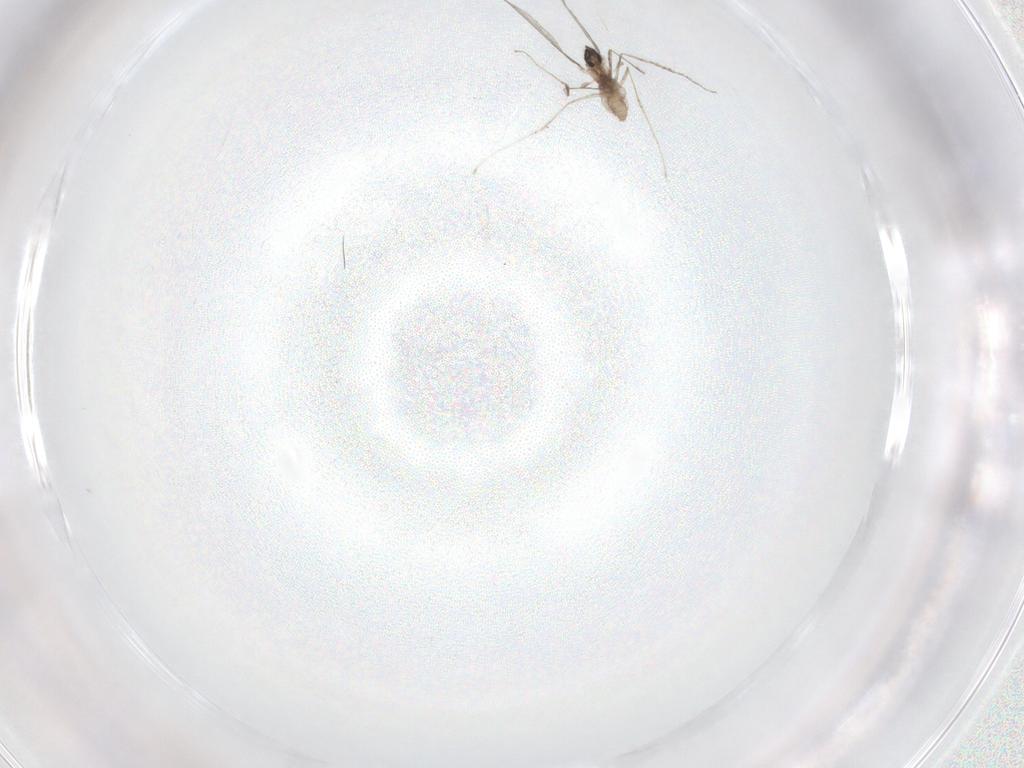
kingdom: Animalia
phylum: Arthropoda
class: Insecta
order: Diptera
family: Cecidomyiidae
